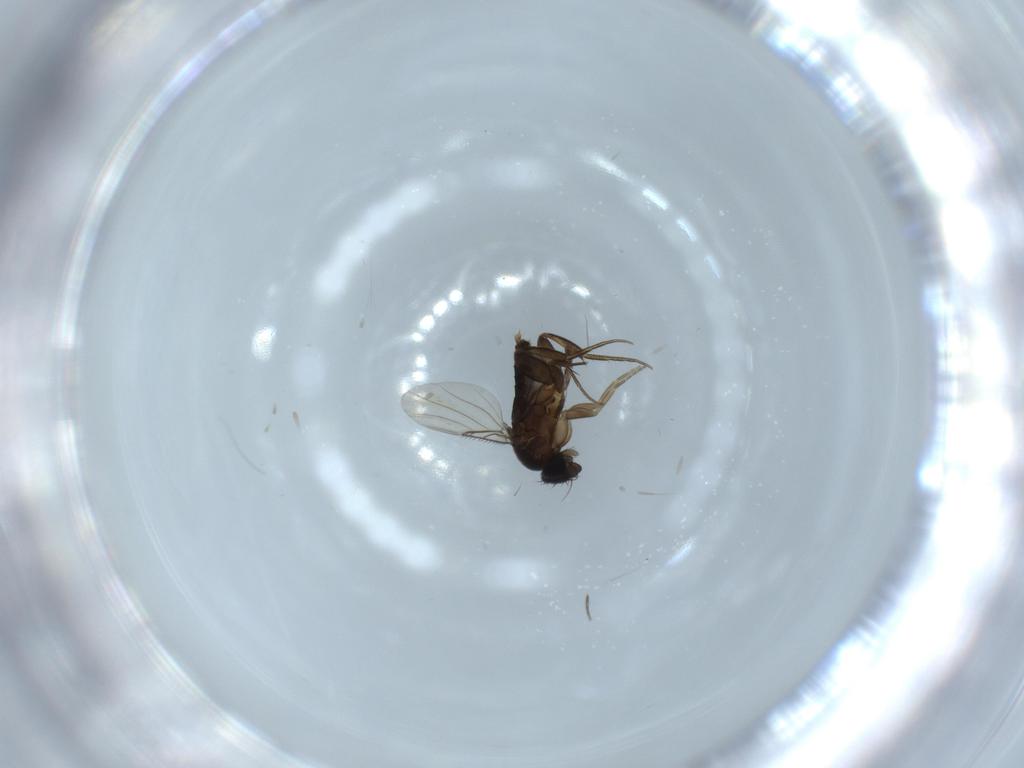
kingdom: Animalia
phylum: Arthropoda
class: Insecta
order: Diptera
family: Phoridae
